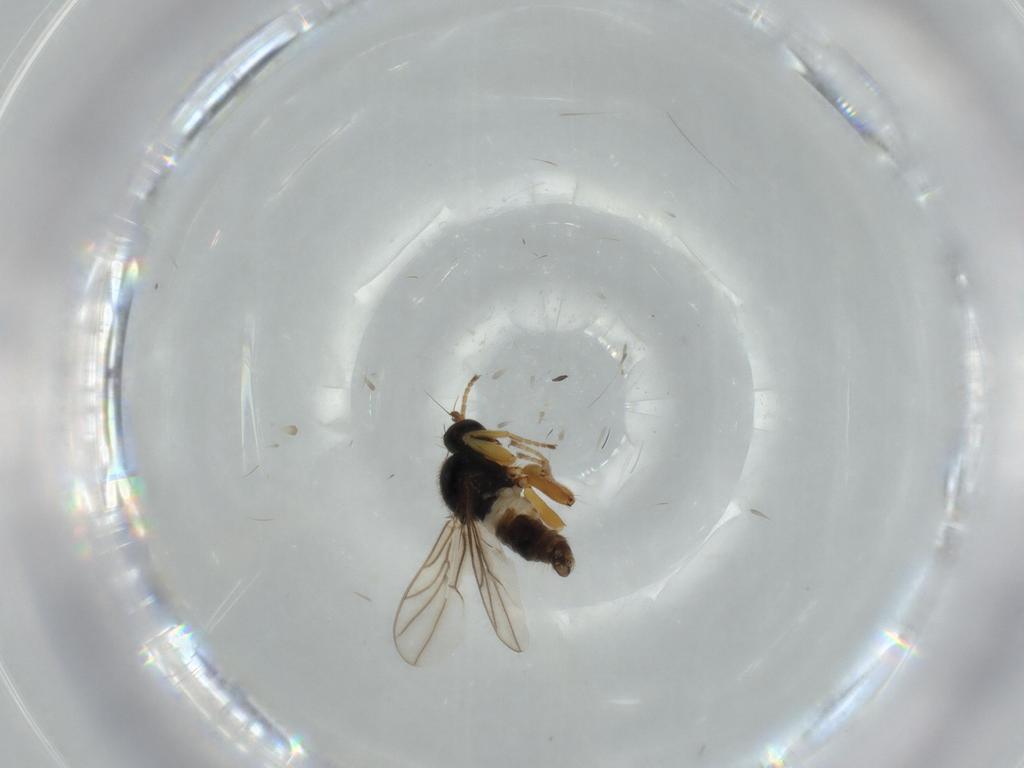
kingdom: Animalia
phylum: Arthropoda
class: Insecta
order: Diptera
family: Hybotidae
